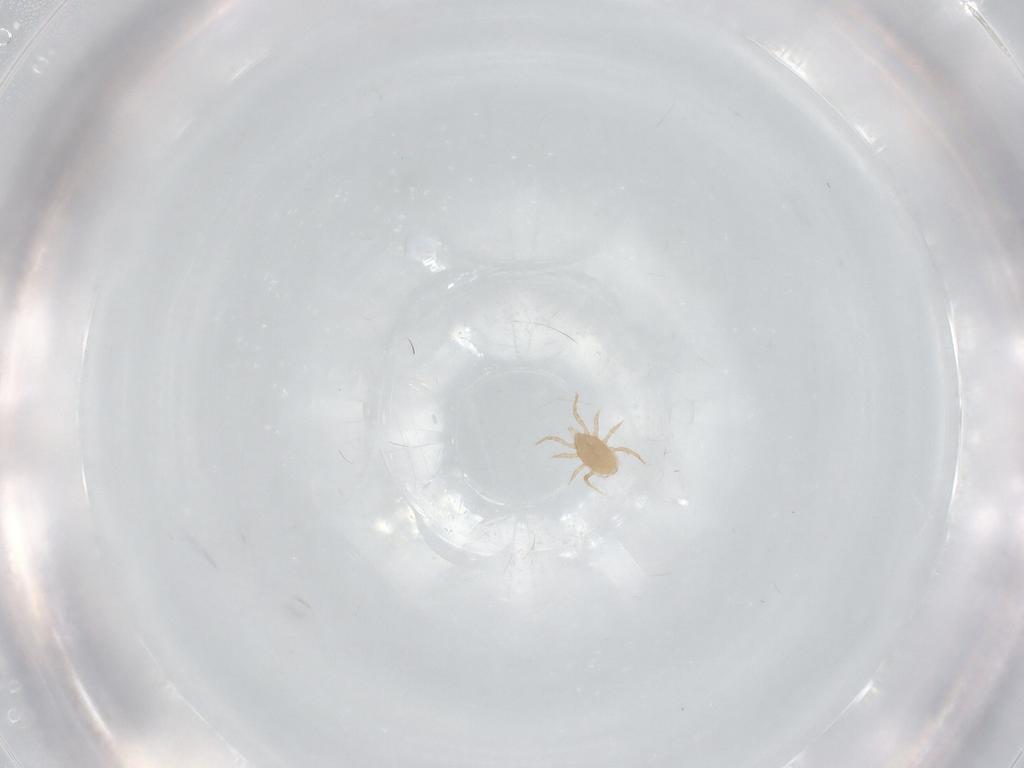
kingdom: Animalia
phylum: Arthropoda
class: Arachnida
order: Mesostigmata
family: Blattisociidae
